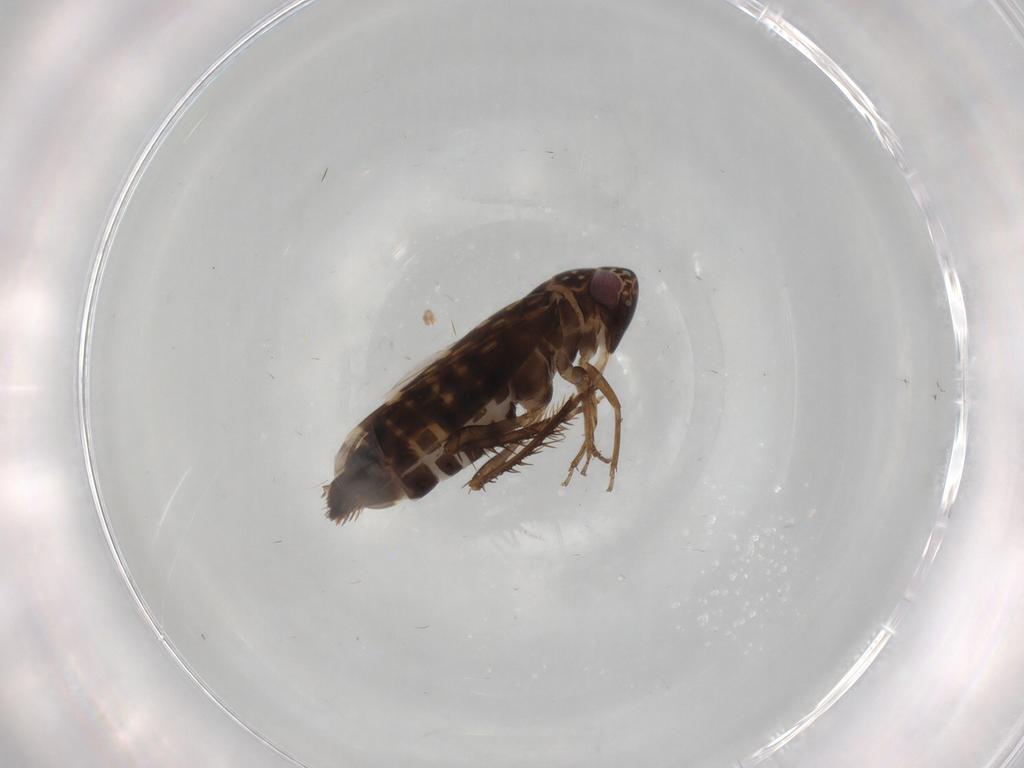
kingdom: Animalia
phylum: Arthropoda
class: Insecta
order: Hemiptera
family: Cicadellidae
